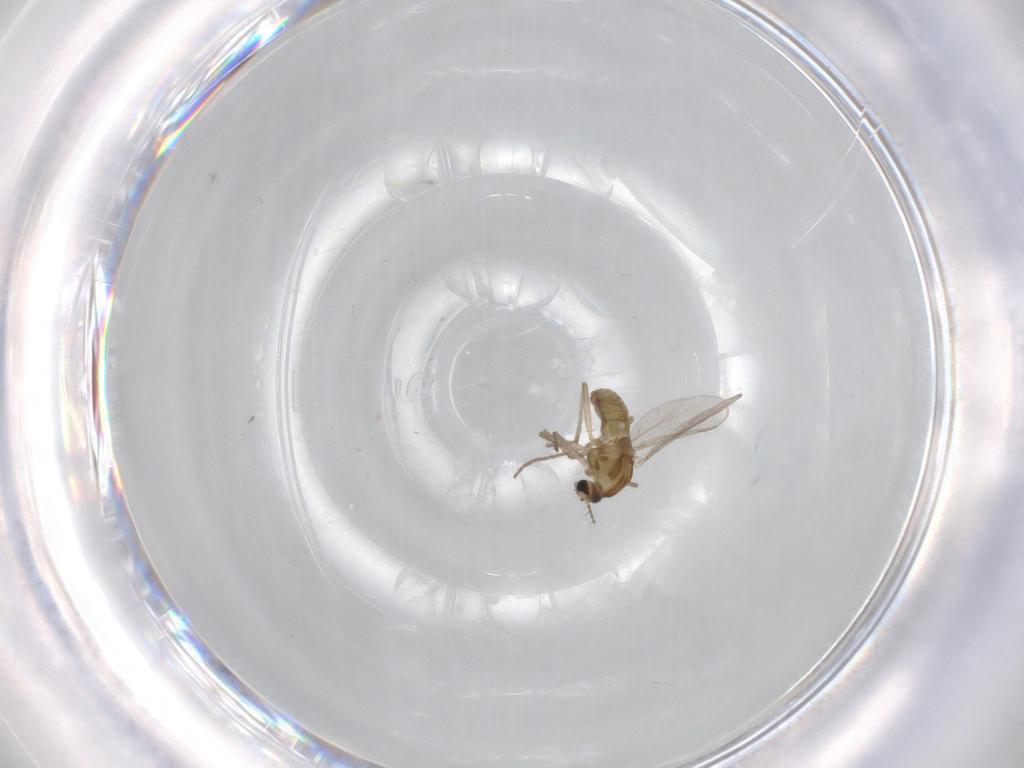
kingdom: Animalia
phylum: Arthropoda
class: Insecta
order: Diptera
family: Chironomidae
